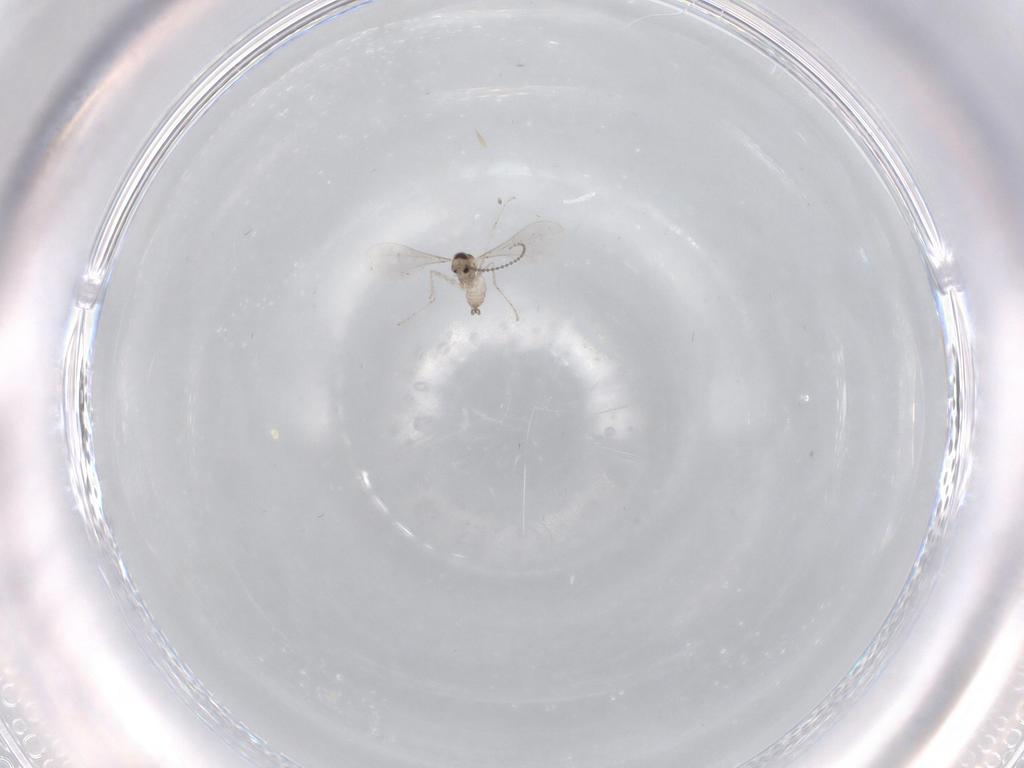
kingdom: Animalia
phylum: Arthropoda
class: Insecta
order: Diptera
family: Cecidomyiidae
